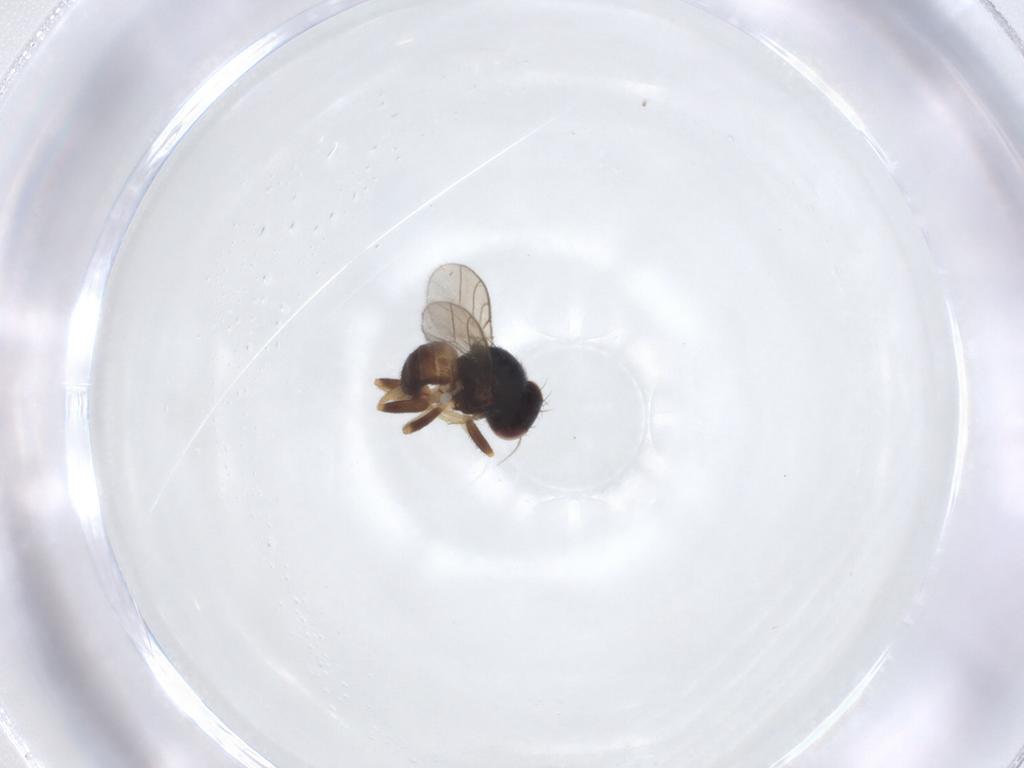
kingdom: Animalia
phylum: Arthropoda
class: Insecta
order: Diptera
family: Chloropidae
